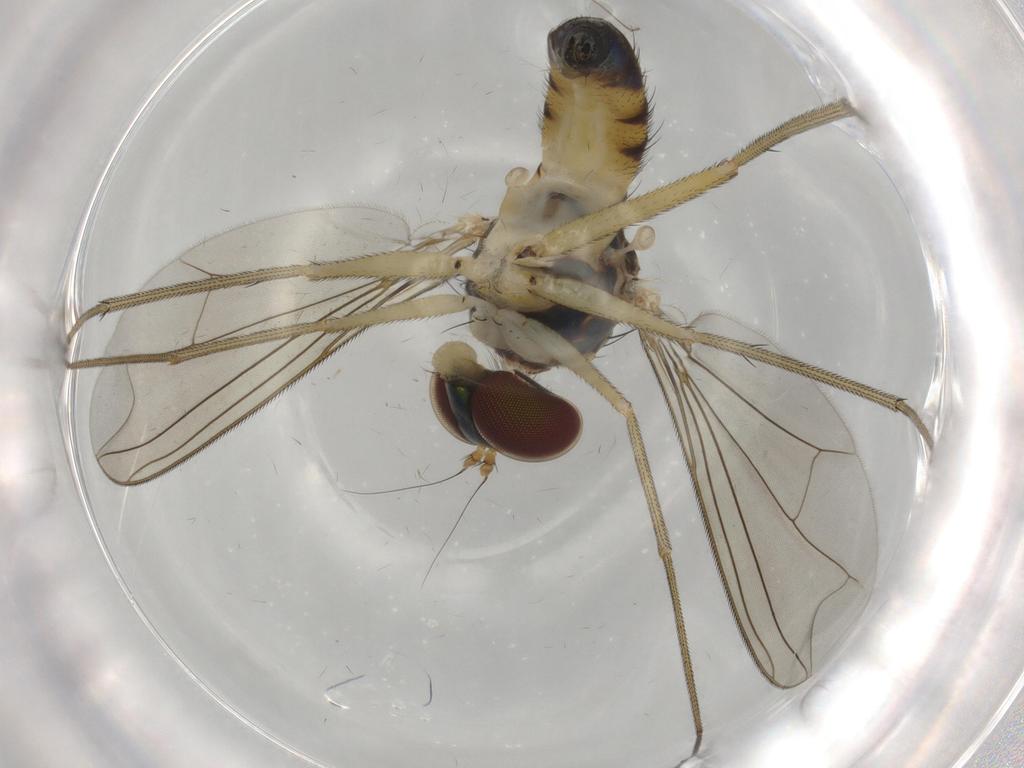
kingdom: Animalia
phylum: Arthropoda
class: Insecta
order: Diptera
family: Dolichopodidae
